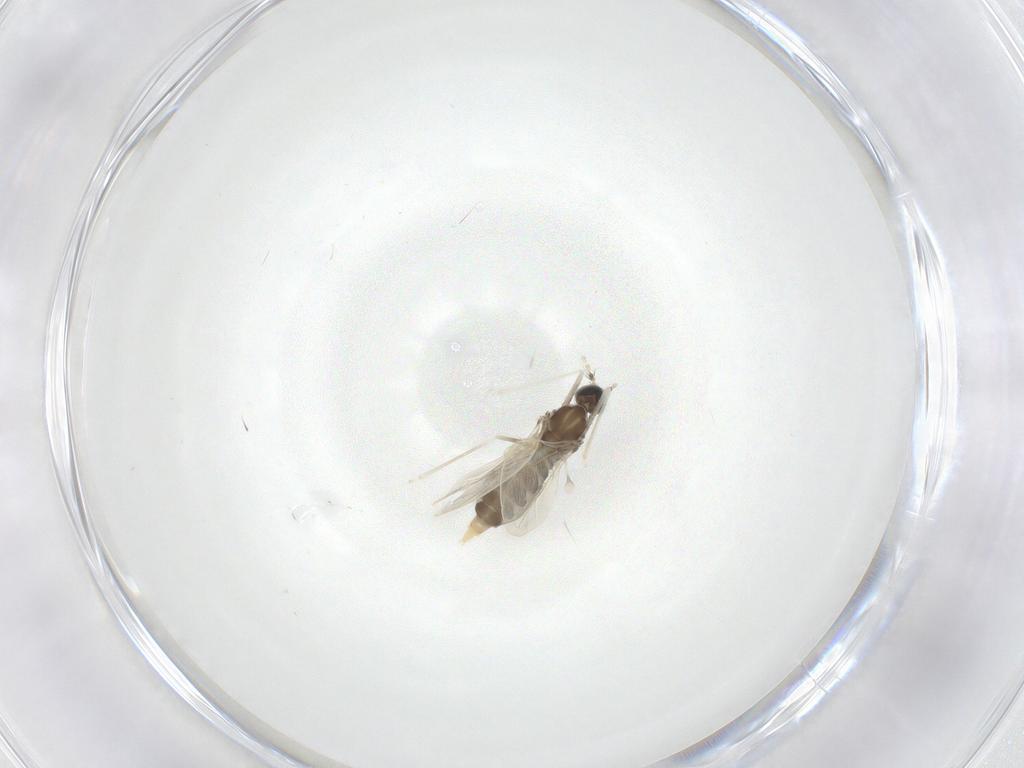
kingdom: Animalia
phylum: Arthropoda
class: Insecta
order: Diptera
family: Cecidomyiidae
